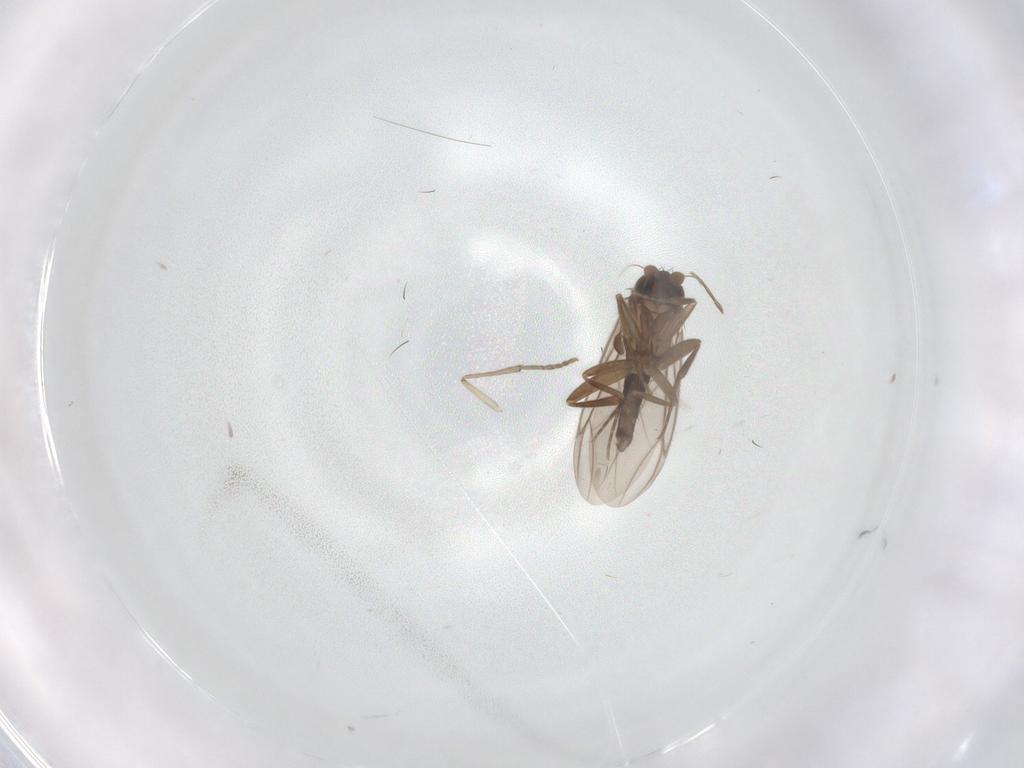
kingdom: Animalia
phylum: Arthropoda
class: Insecta
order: Diptera
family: Psychodidae
